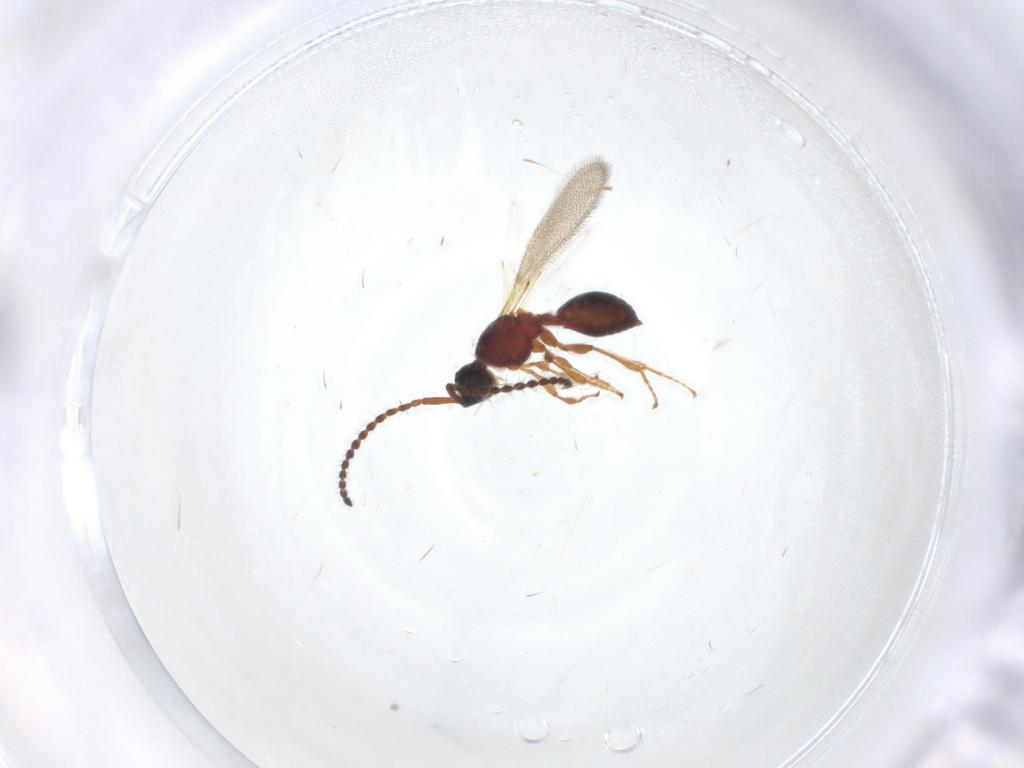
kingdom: Animalia
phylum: Arthropoda
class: Insecta
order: Hymenoptera
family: Diapriidae
